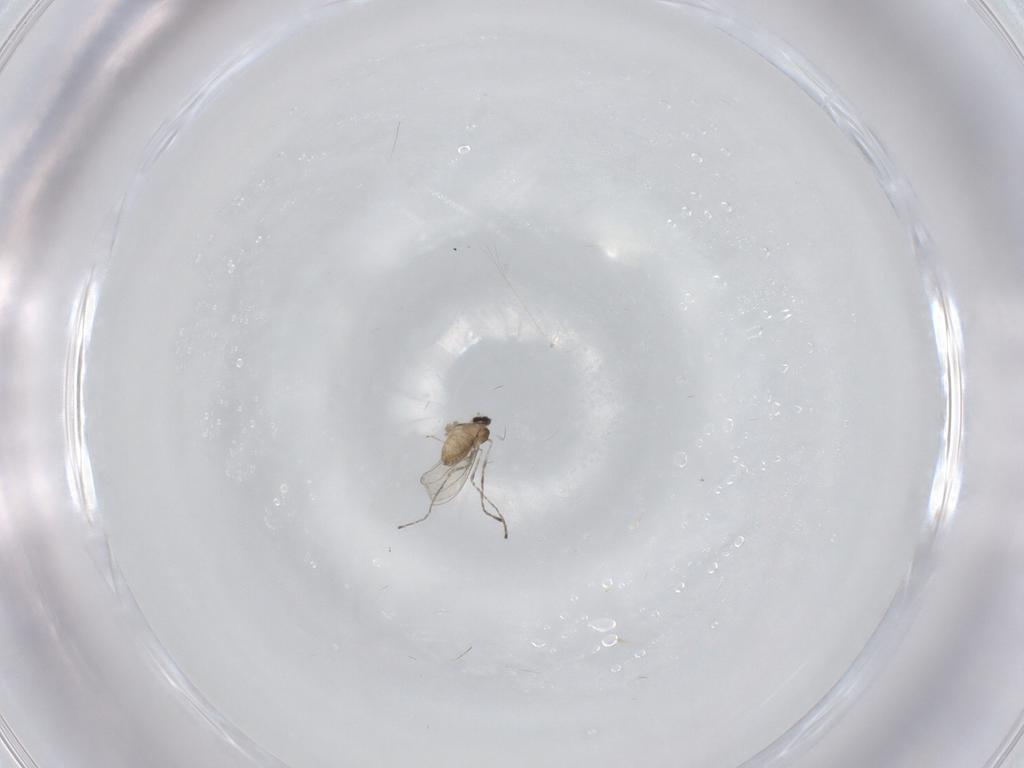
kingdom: Animalia
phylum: Arthropoda
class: Insecta
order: Diptera
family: Cecidomyiidae
